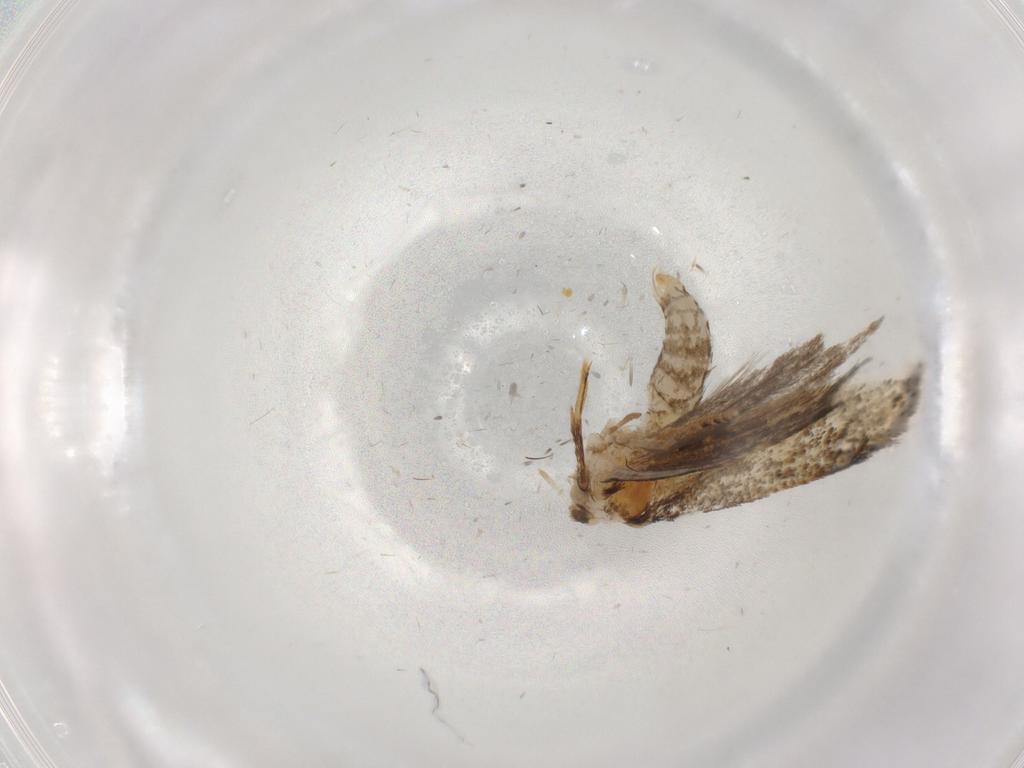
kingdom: Animalia
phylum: Arthropoda
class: Insecta
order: Lepidoptera
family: Tineidae
